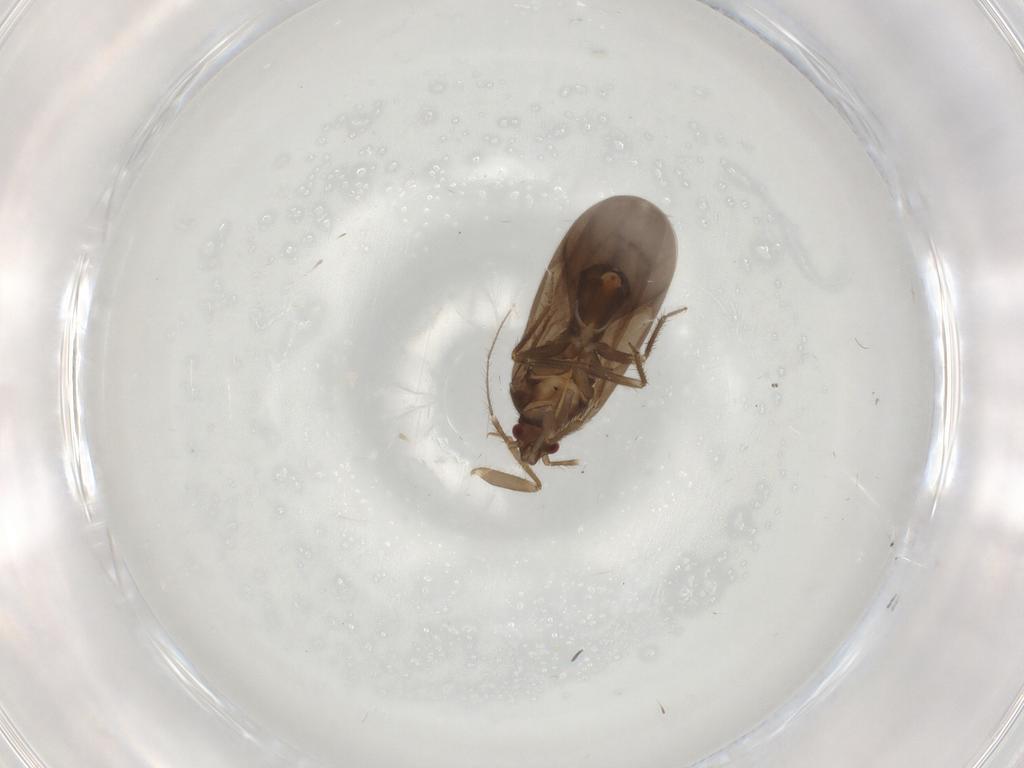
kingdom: Animalia
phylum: Arthropoda
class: Insecta
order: Hemiptera
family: Ceratocombidae
